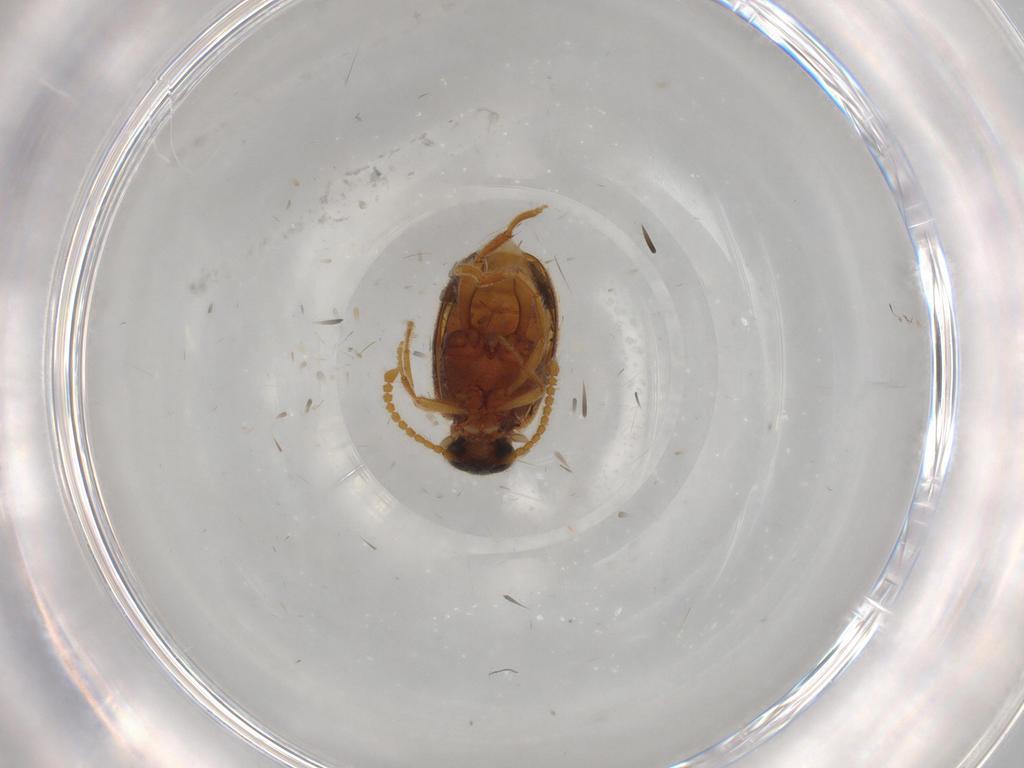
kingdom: Animalia
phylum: Arthropoda
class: Insecta
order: Coleoptera
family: Aderidae
